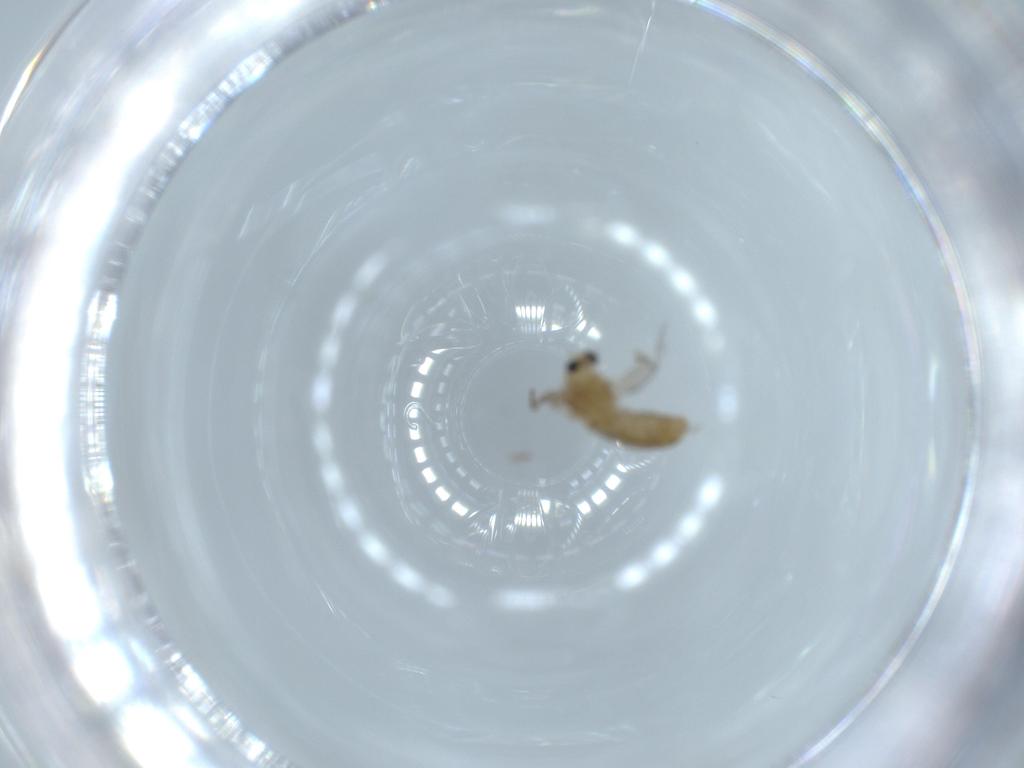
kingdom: Animalia
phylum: Arthropoda
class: Insecta
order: Diptera
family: Chironomidae
